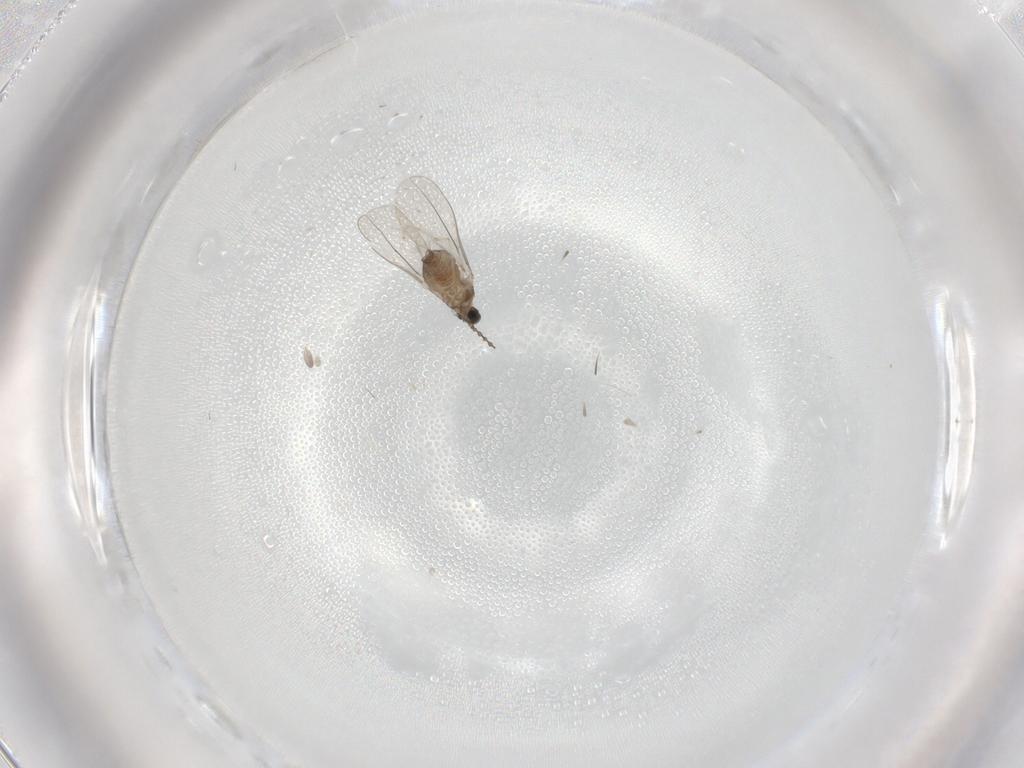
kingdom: Animalia
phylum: Arthropoda
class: Insecta
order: Diptera
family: Cecidomyiidae
